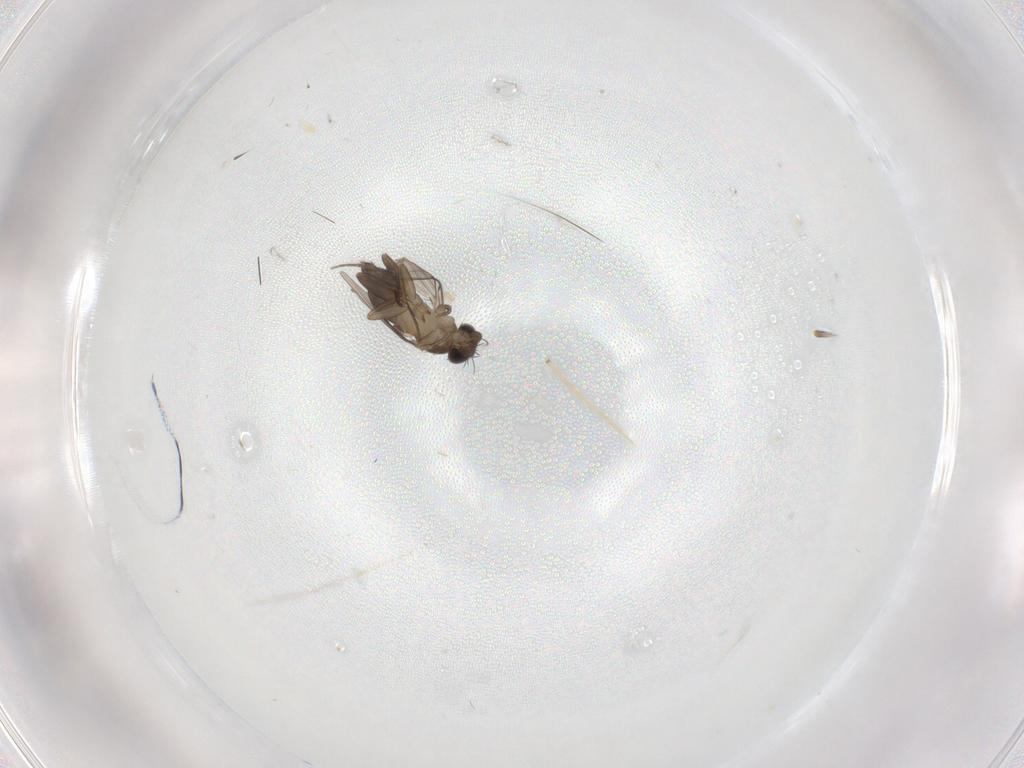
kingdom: Animalia
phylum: Arthropoda
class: Insecta
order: Diptera
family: Phoridae
